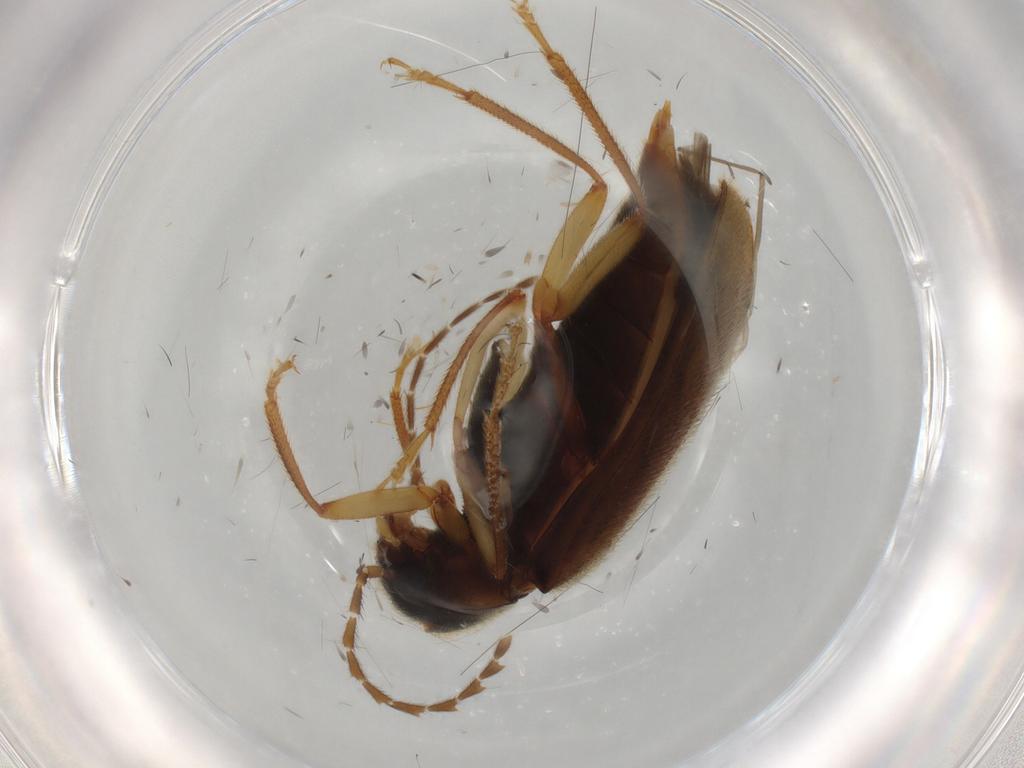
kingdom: Animalia
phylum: Arthropoda
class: Insecta
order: Coleoptera
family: Ptilodactylidae
